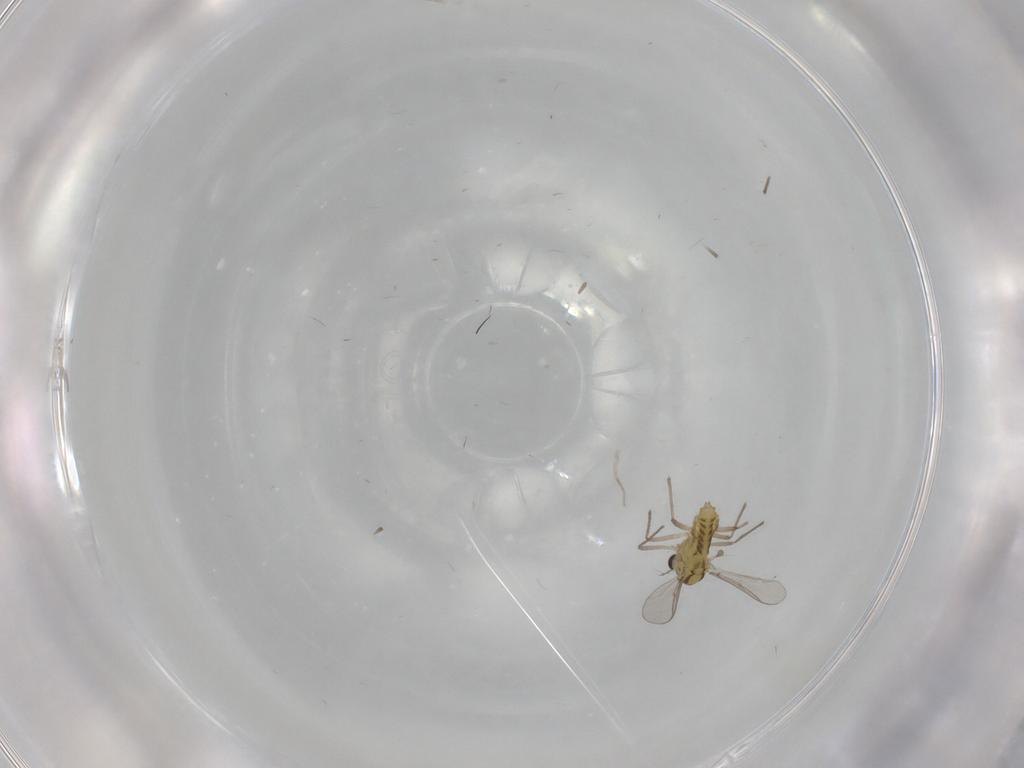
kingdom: Animalia
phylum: Arthropoda
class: Insecta
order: Diptera
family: Chironomidae
